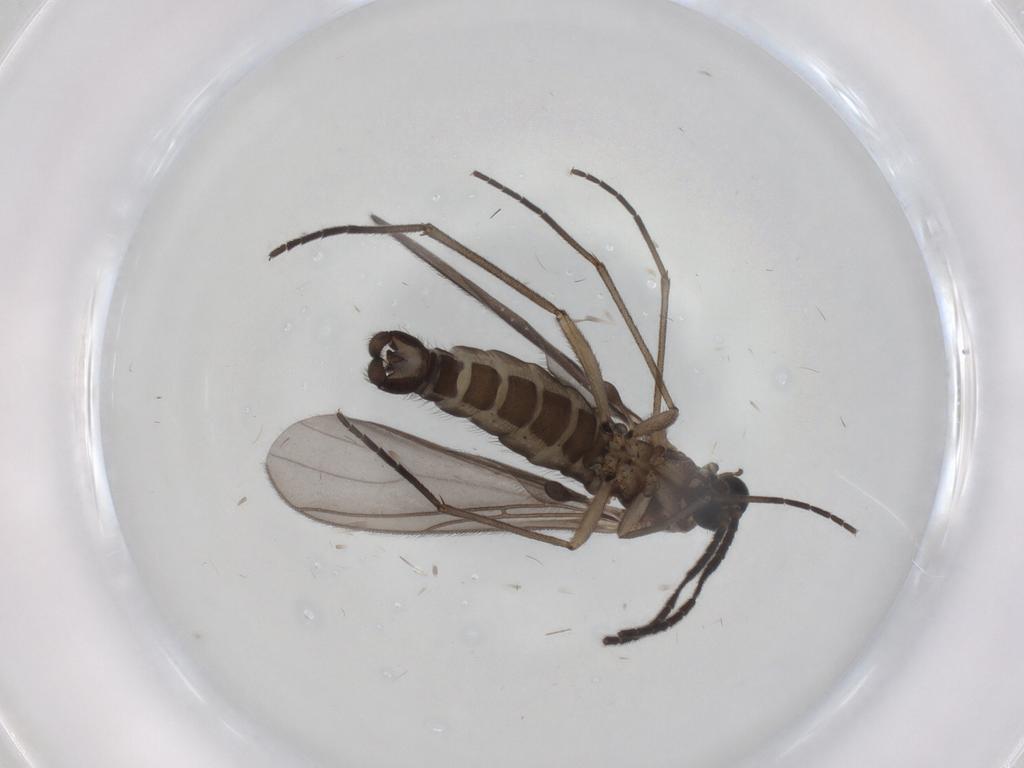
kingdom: Animalia
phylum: Arthropoda
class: Insecta
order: Diptera
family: Sciaridae
